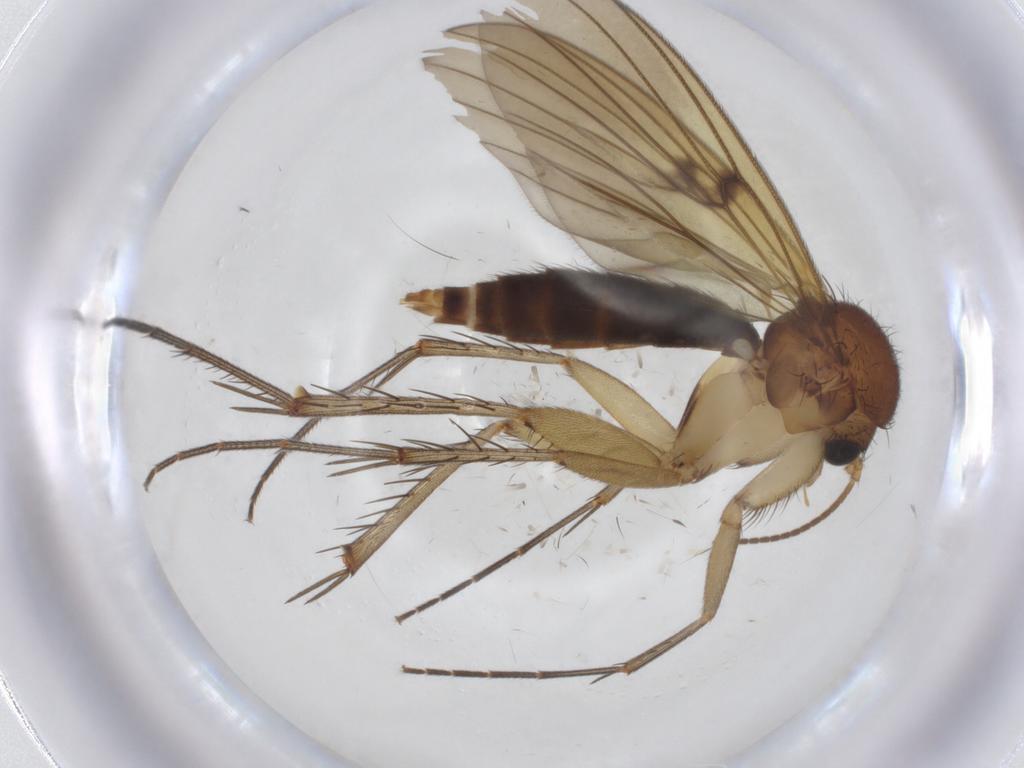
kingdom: Animalia
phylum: Arthropoda
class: Insecta
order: Diptera
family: Mycetophilidae
